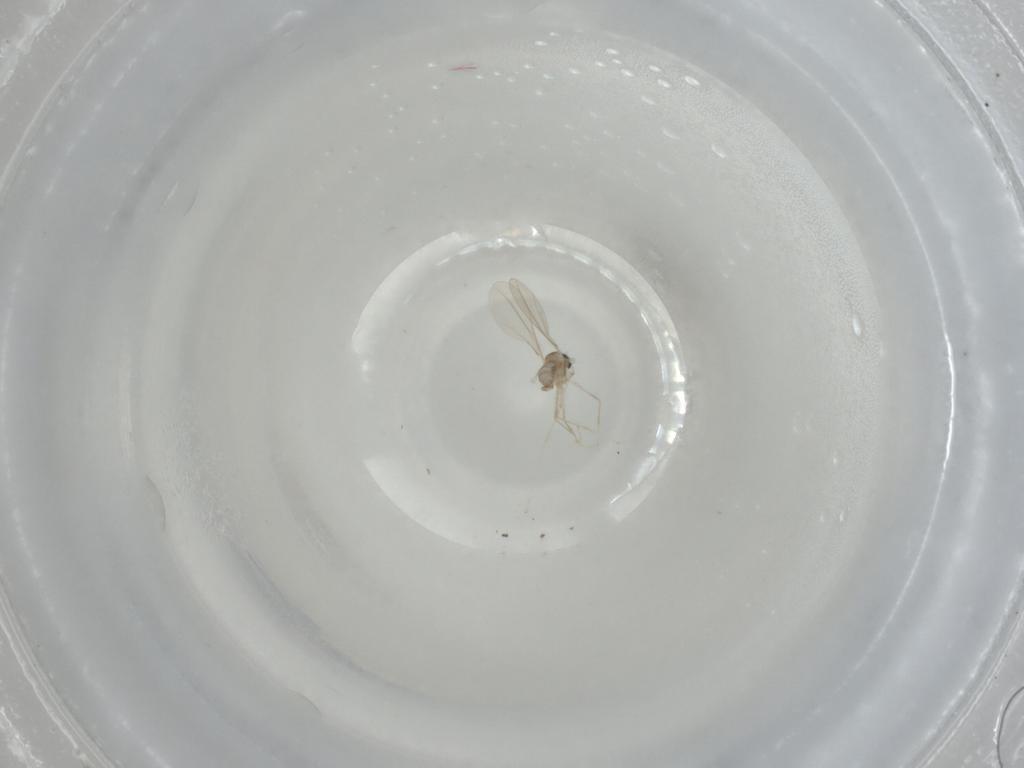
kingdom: Animalia
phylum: Arthropoda
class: Insecta
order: Diptera
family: Cecidomyiidae
